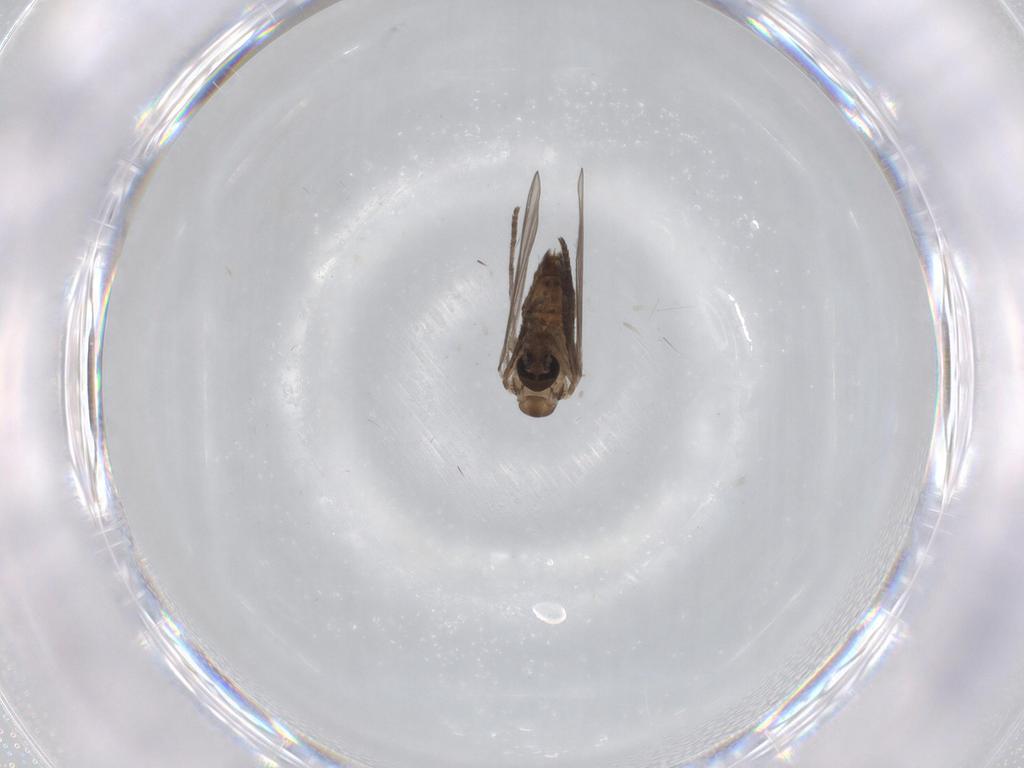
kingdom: Animalia
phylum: Arthropoda
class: Insecta
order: Diptera
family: Psychodidae
